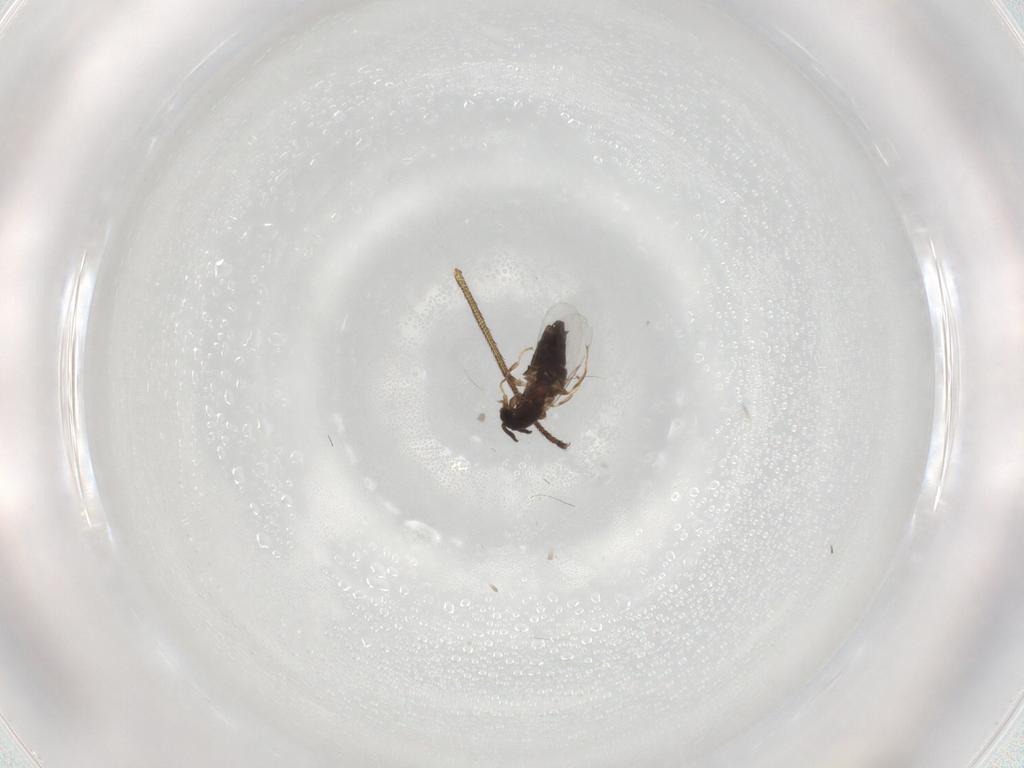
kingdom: Animalia
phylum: Arthropoda
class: Insecta
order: Diptera
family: Scatopsidae
